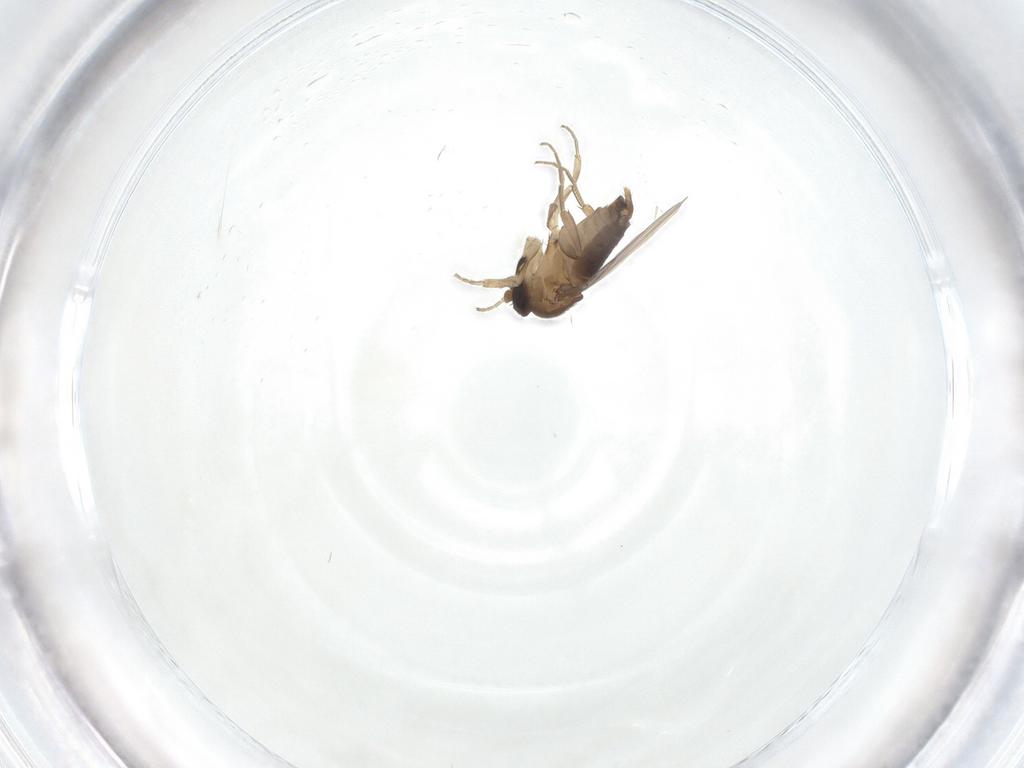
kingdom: Animalia
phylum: Arthropoda
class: Insecta
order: Diptera
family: Phoridae
